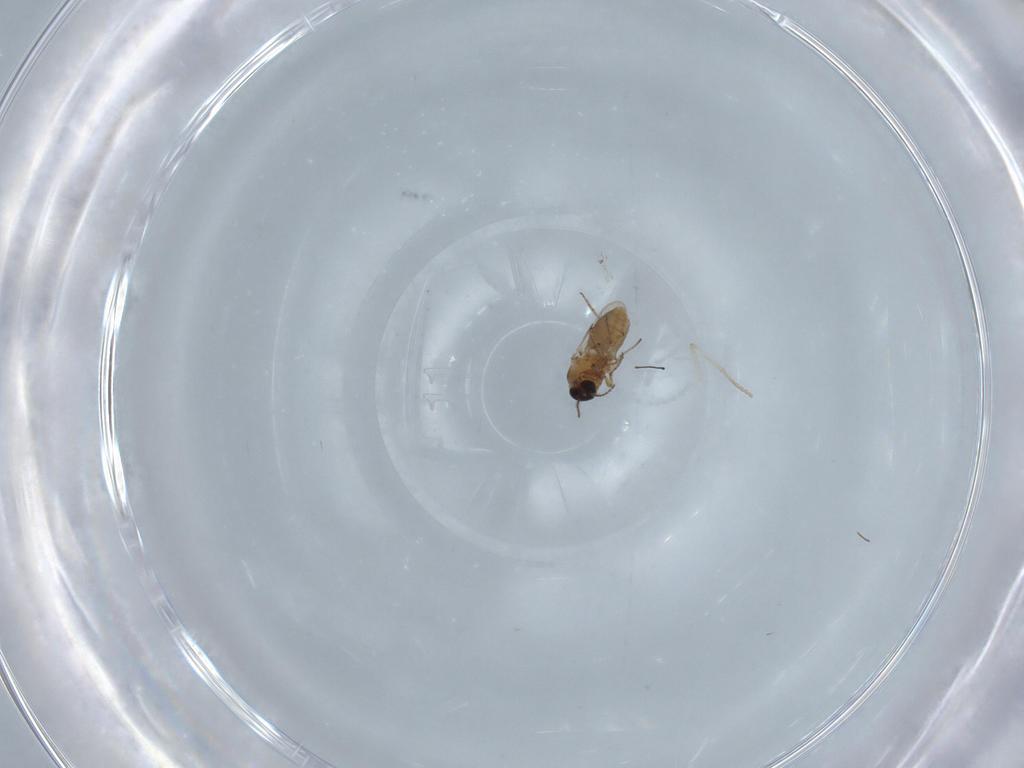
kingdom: Animalia
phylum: Arthropoda
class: Insecta
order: Diptera
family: Ceratopogonidae
